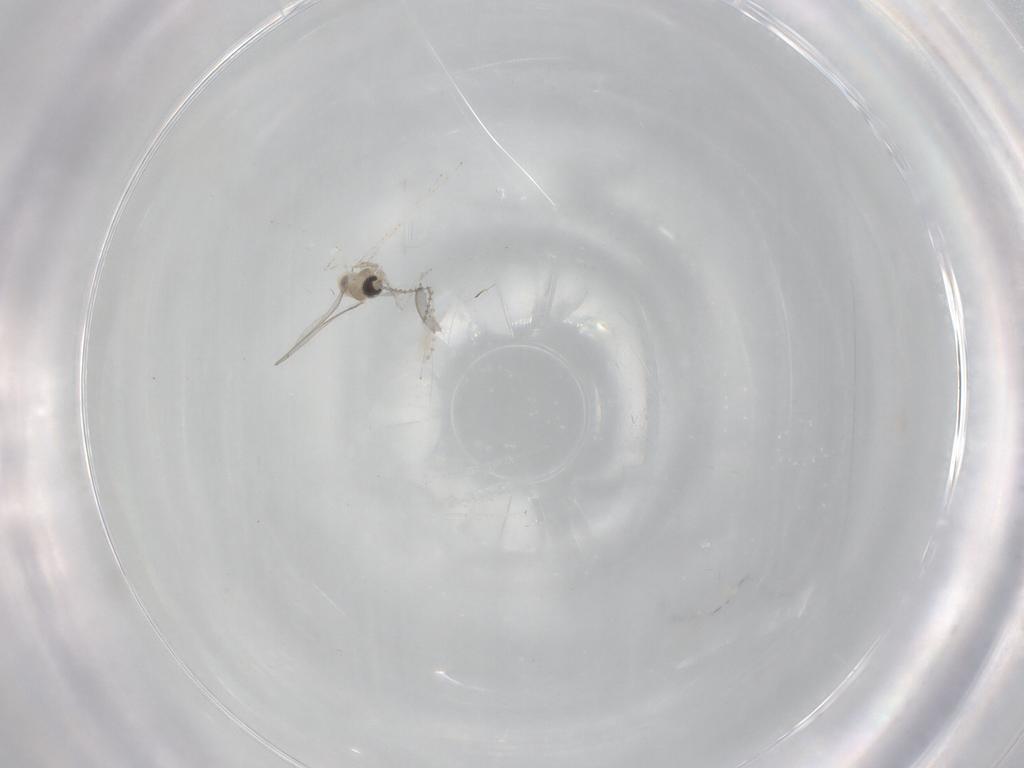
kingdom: Animalia
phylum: Arthropoda
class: Insecta
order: Diptera
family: Cecidomyiidae
